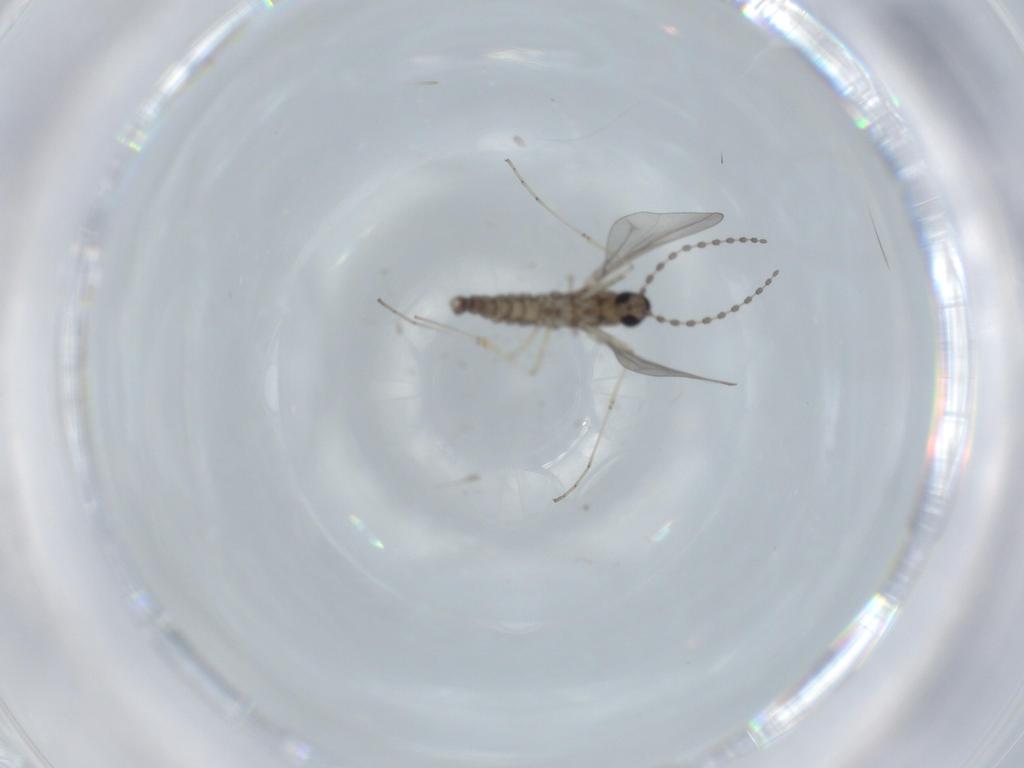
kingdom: Animalia
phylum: Arthropoda
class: Insecta
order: Diptera
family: Cecidomyiidae
